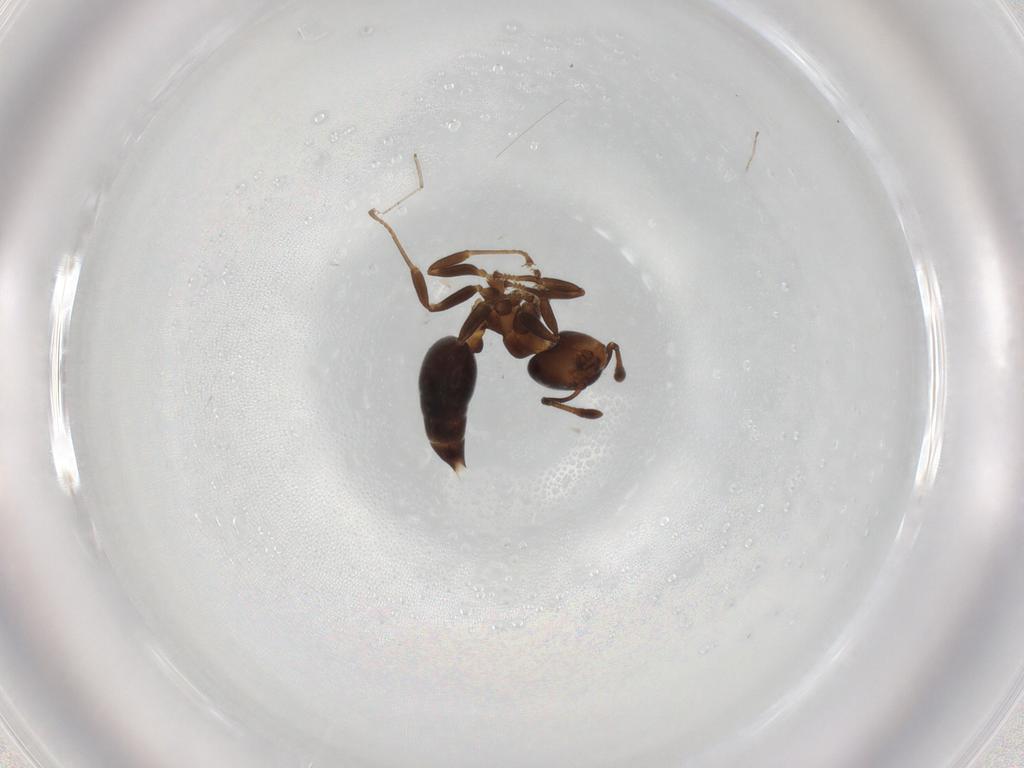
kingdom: Animalia
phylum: Arthropoda
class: Insecta
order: Hymenoptera
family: Formicidae
